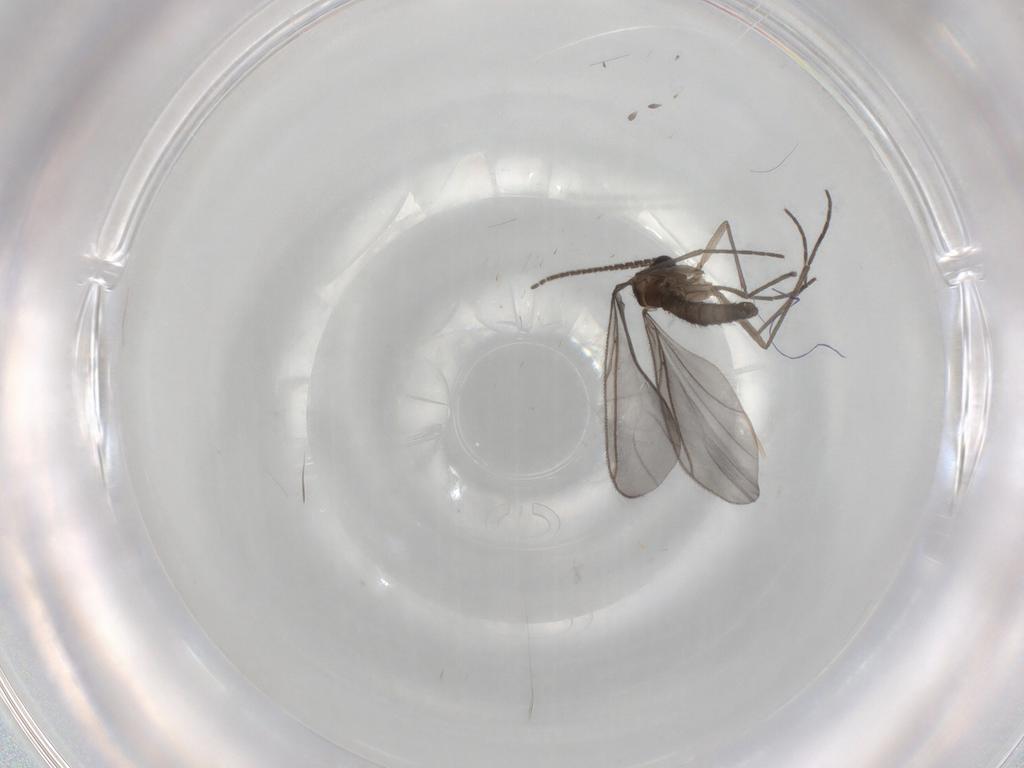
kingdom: Animalia
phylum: Arthropoda
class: Insecta
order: Diptera
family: Sciaridae
